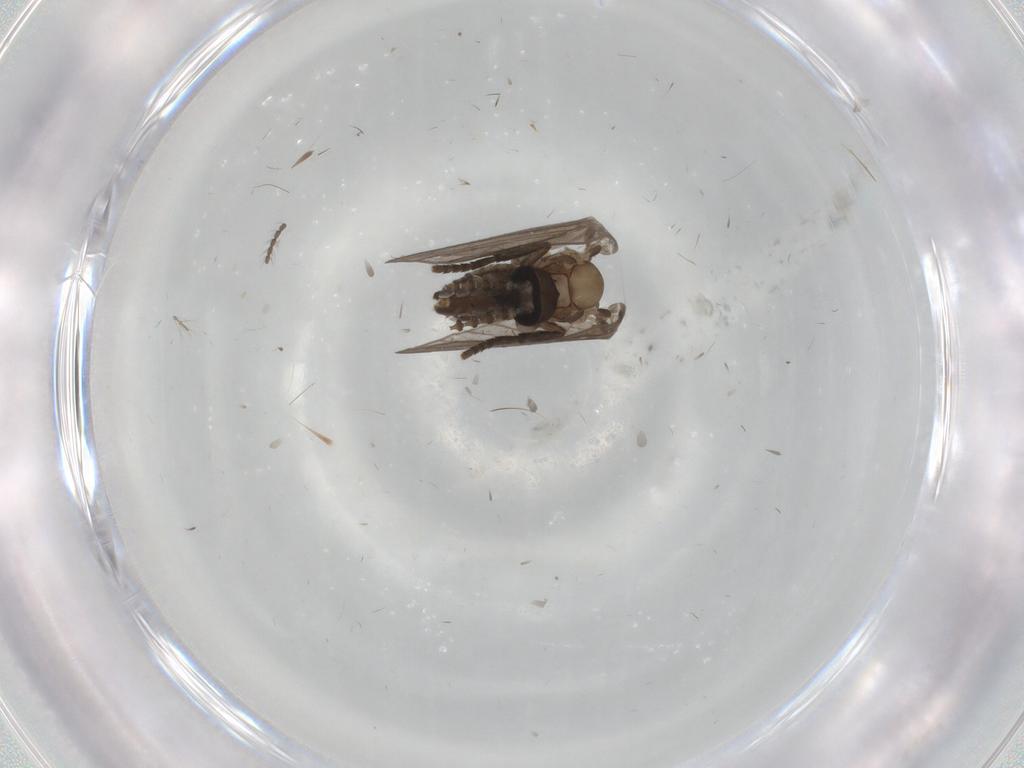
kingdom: Animalia
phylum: Arthropoda
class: Insecta
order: Diptera
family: Psychodidae
